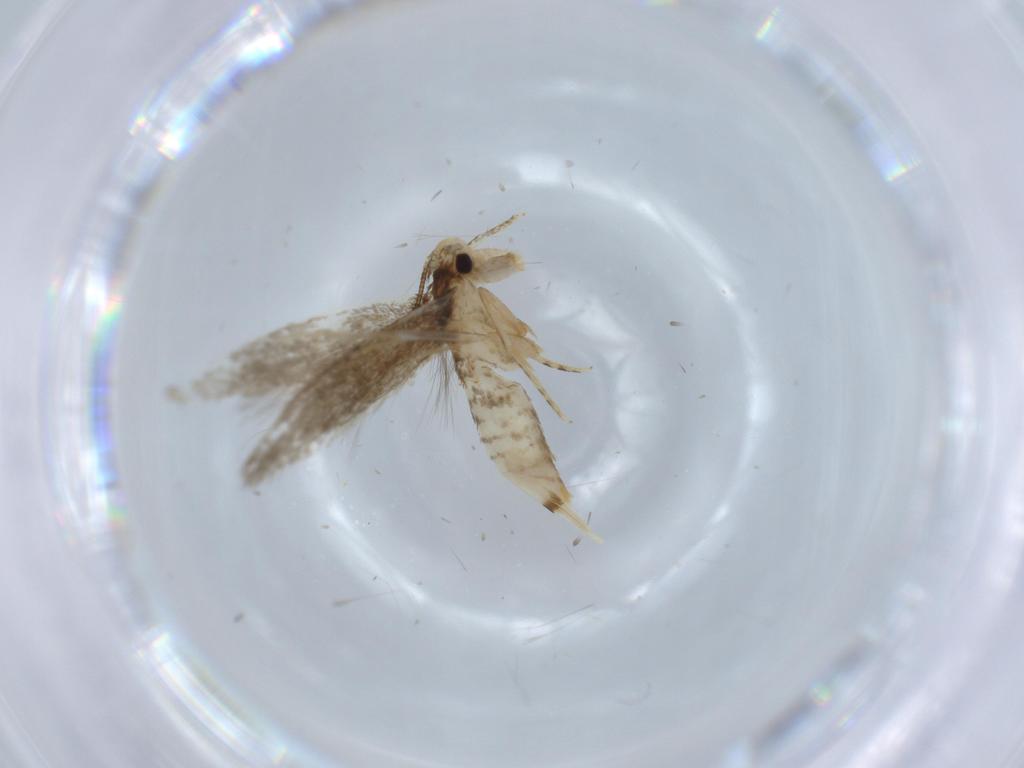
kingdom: Animalia
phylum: Arthropoda
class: Insecta
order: Lepidoptera
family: Tineidae
